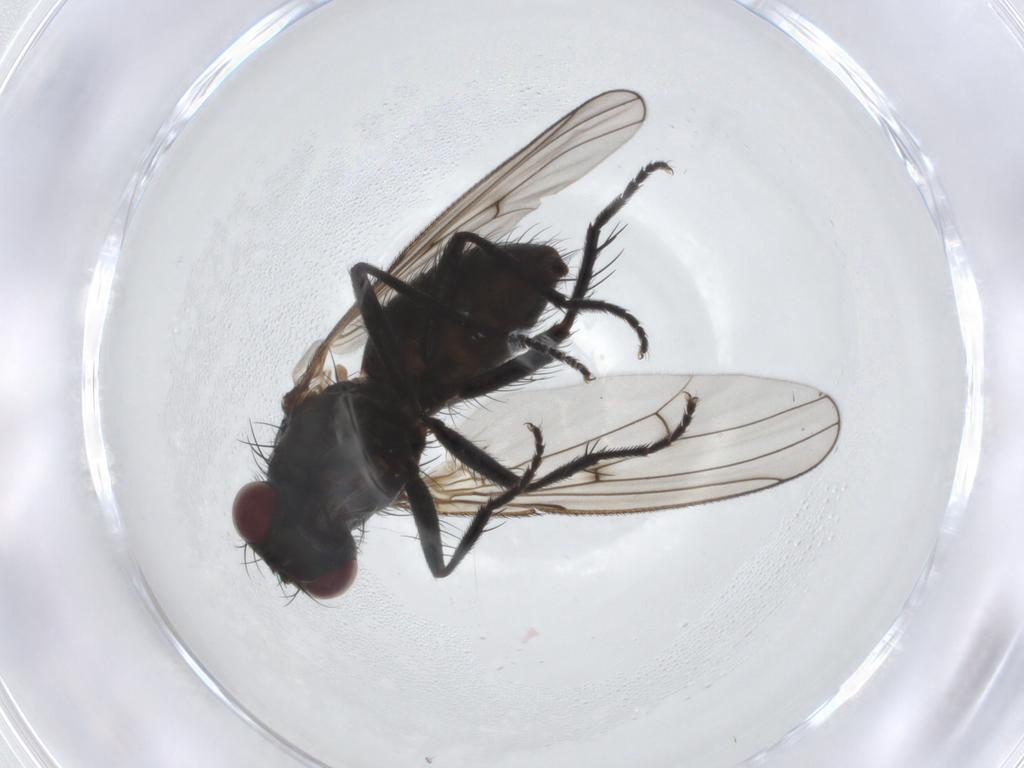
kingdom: Animalia
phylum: Arthropoda
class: Insecta
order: Diptera
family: Muscidae
